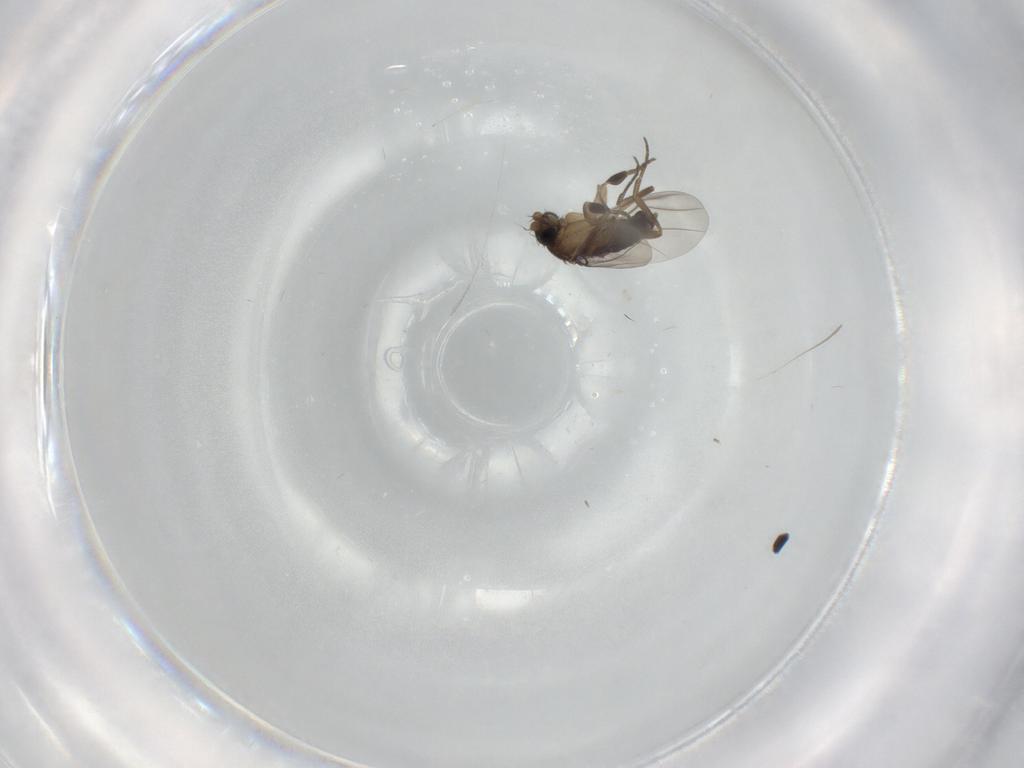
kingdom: Animalia
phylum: Arthropoda
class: Insecta
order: Diptera
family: Phoridae
